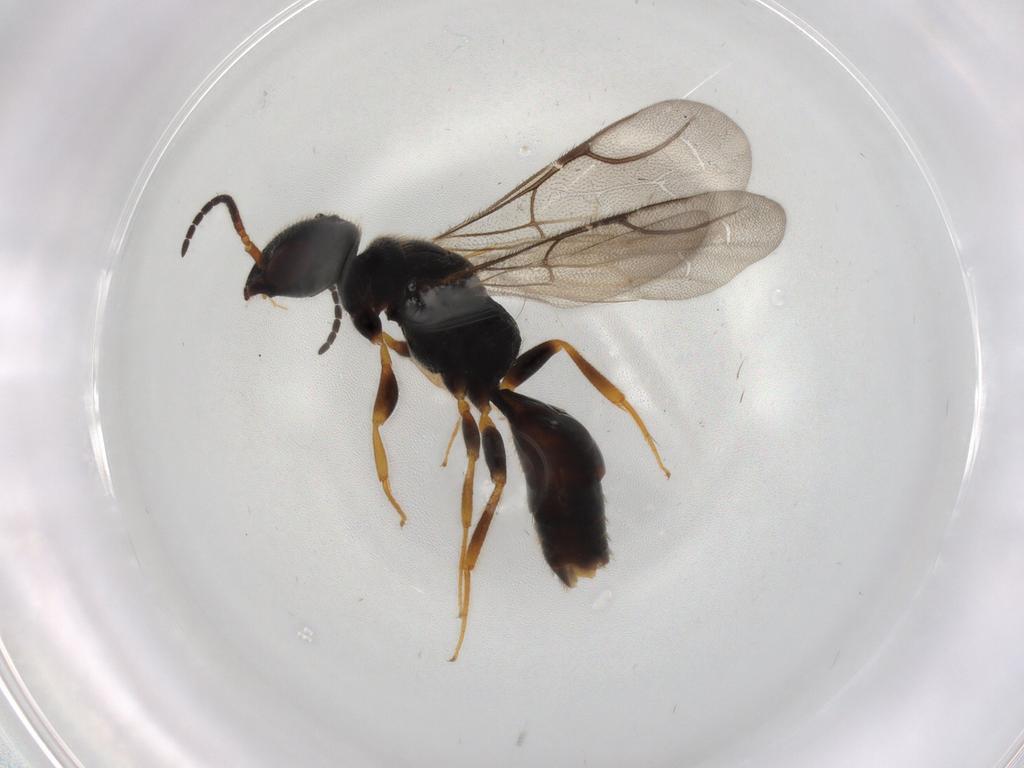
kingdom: Animalia
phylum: Arthropoda
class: Insecta
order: Hymenoptera
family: Bethylidae
